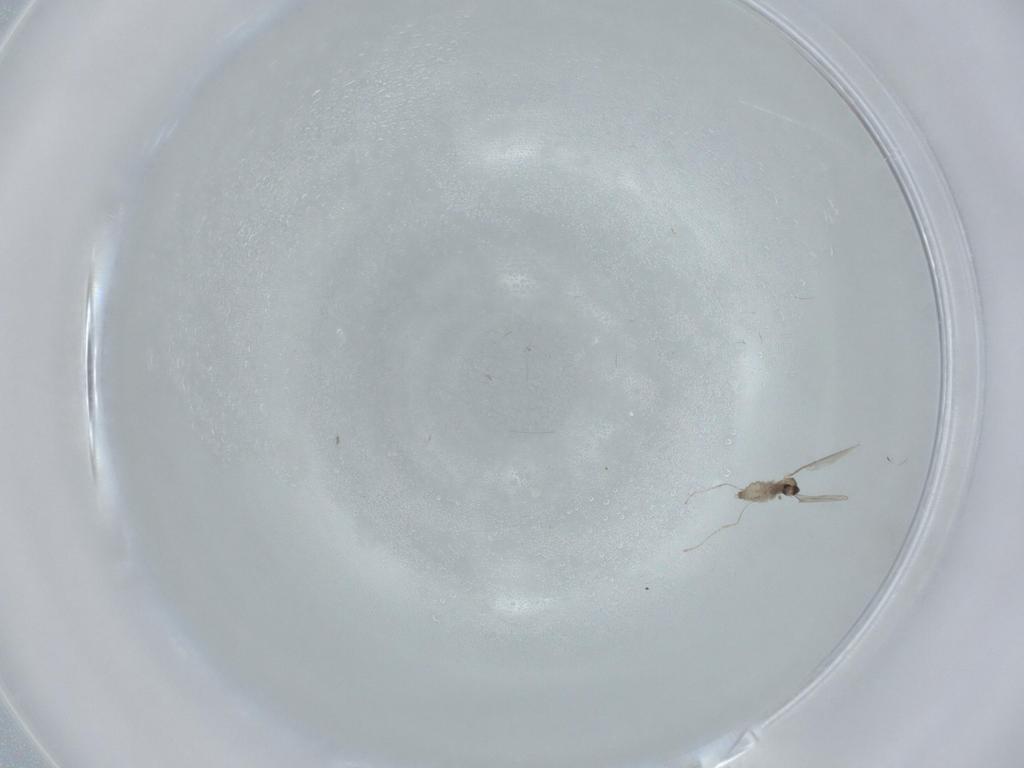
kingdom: Animalia
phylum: Arthropoda
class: Insecta
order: Diptera
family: Cecidomyiidae
